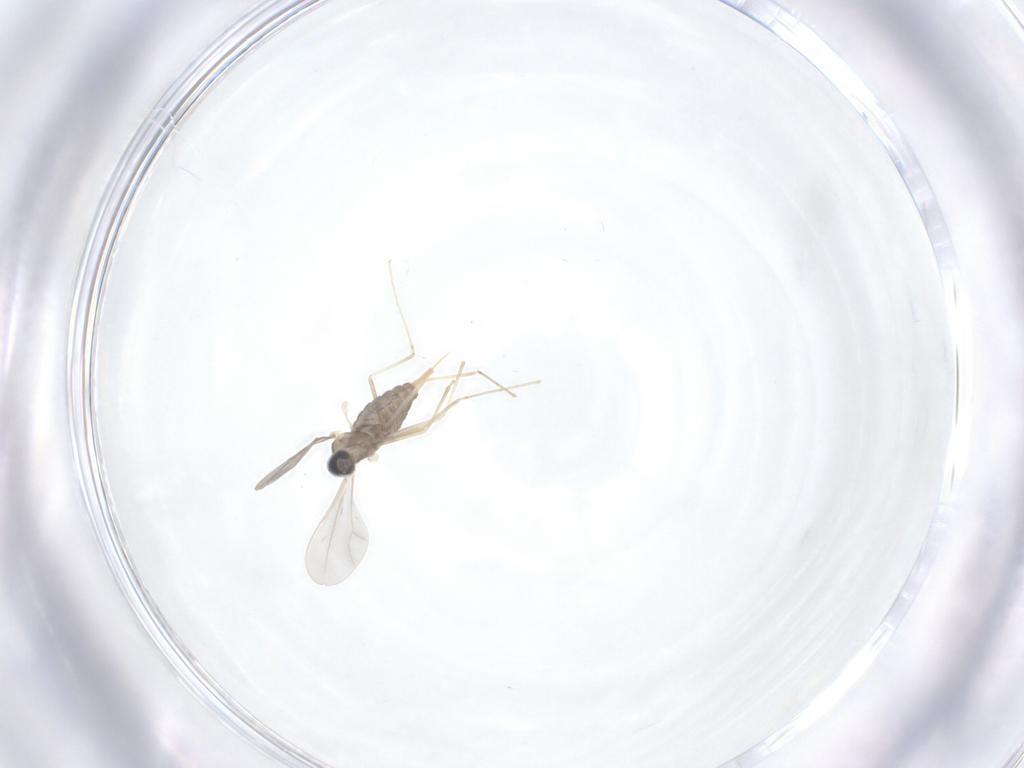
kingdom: Animalia
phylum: Arthropoda
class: Insecta
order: Diptera
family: Cecidomyiidae
